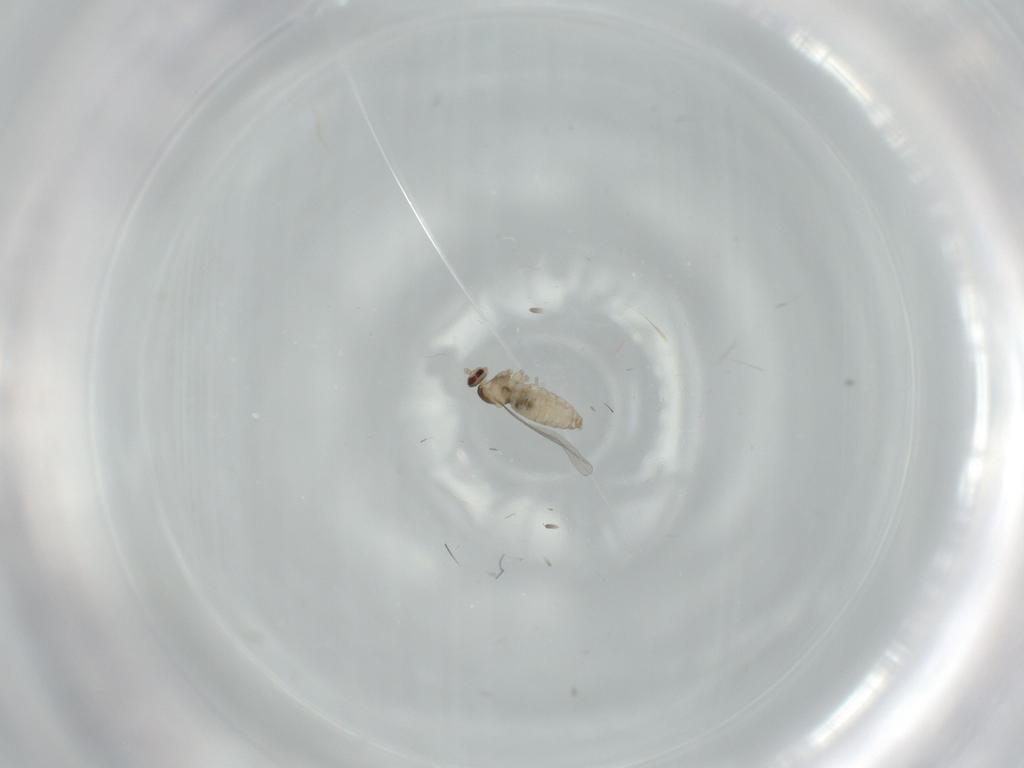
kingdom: Animalia
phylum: Arthropoda
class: Insecta
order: Diptera
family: Cecidomyiidae
